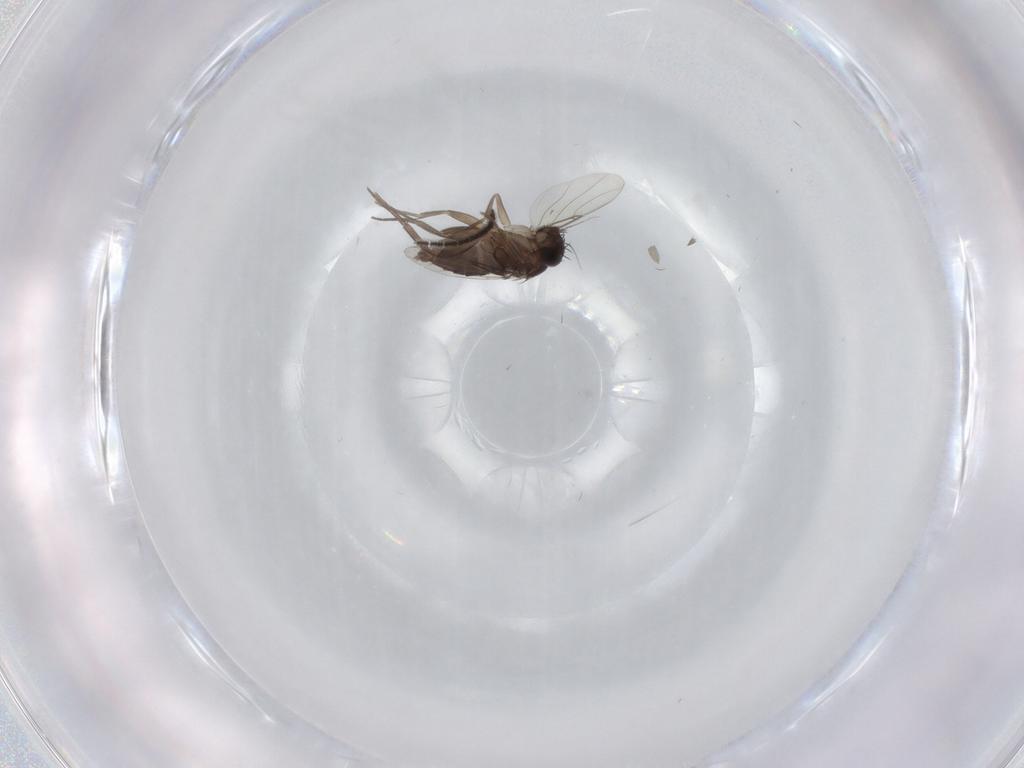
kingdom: Animalia
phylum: Arthropoda
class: Insecta
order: Diptera
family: Phoridae
